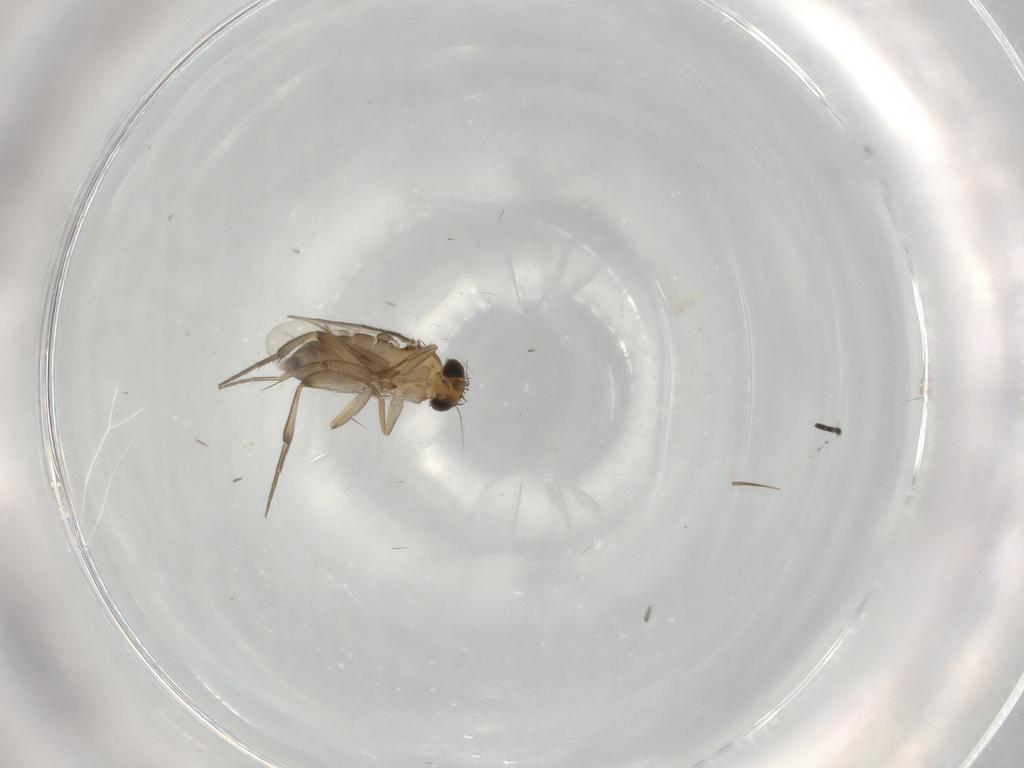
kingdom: Animalia
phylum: Arthropoda
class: Insecta
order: Diptera
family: Phoridae
